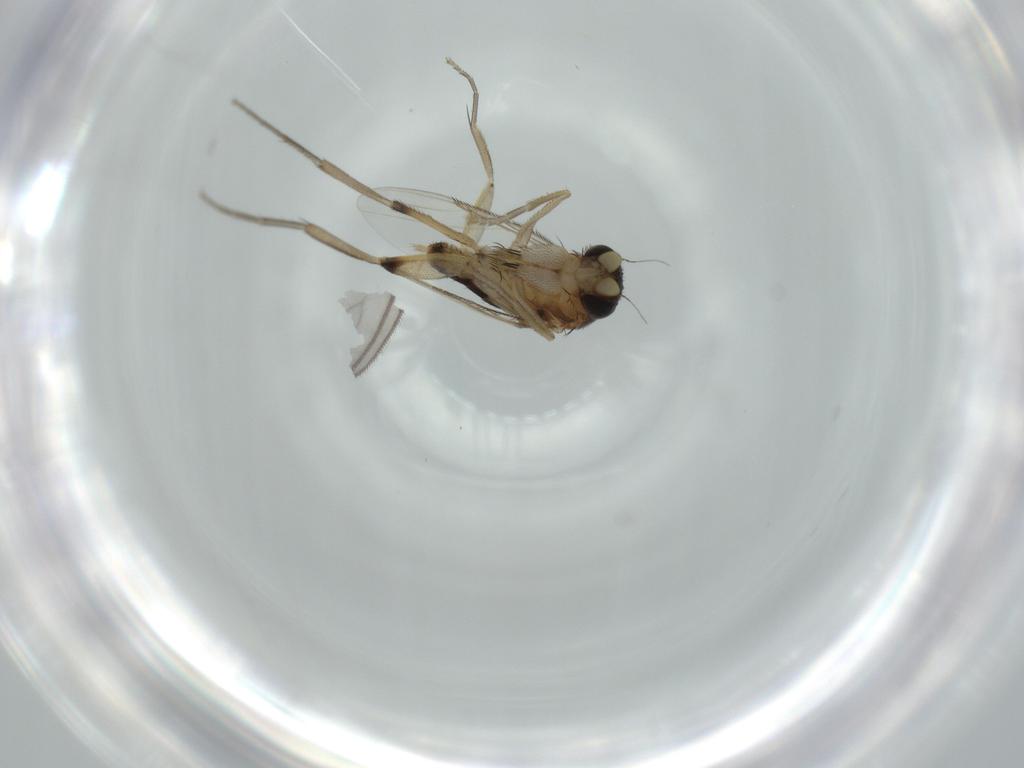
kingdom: Animalia
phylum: Arthropoda
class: Insecta
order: Diptera
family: Phoridae
